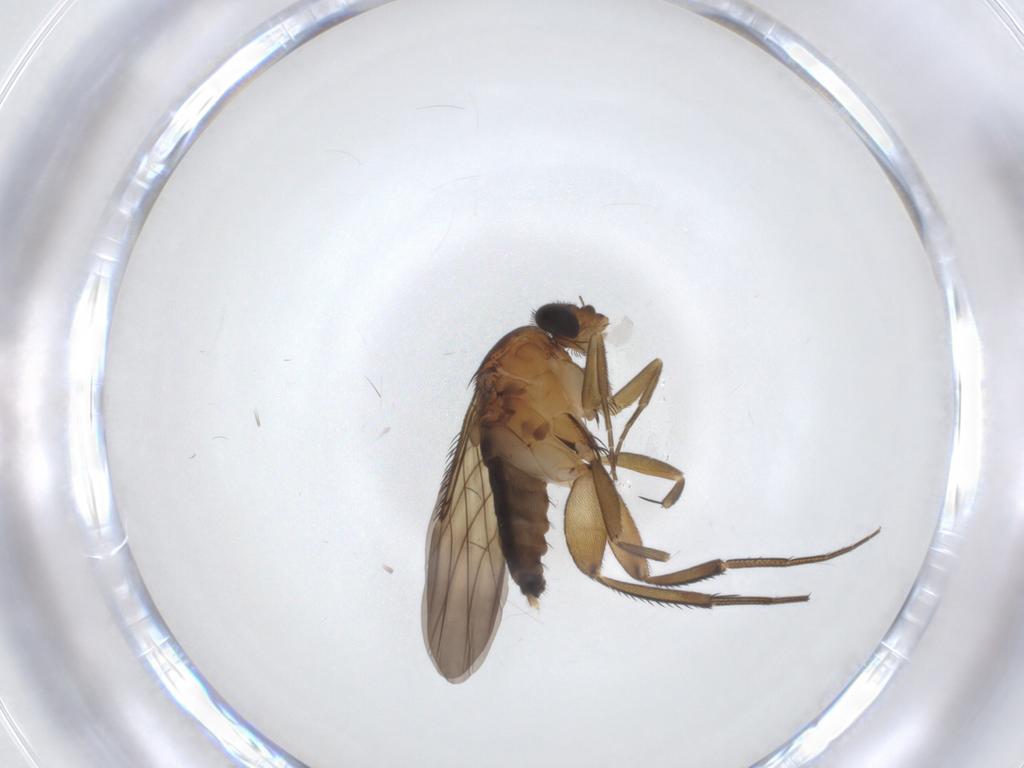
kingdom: Animalia
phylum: Arthropoda
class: Insecta
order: Diptera
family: Phoridae
